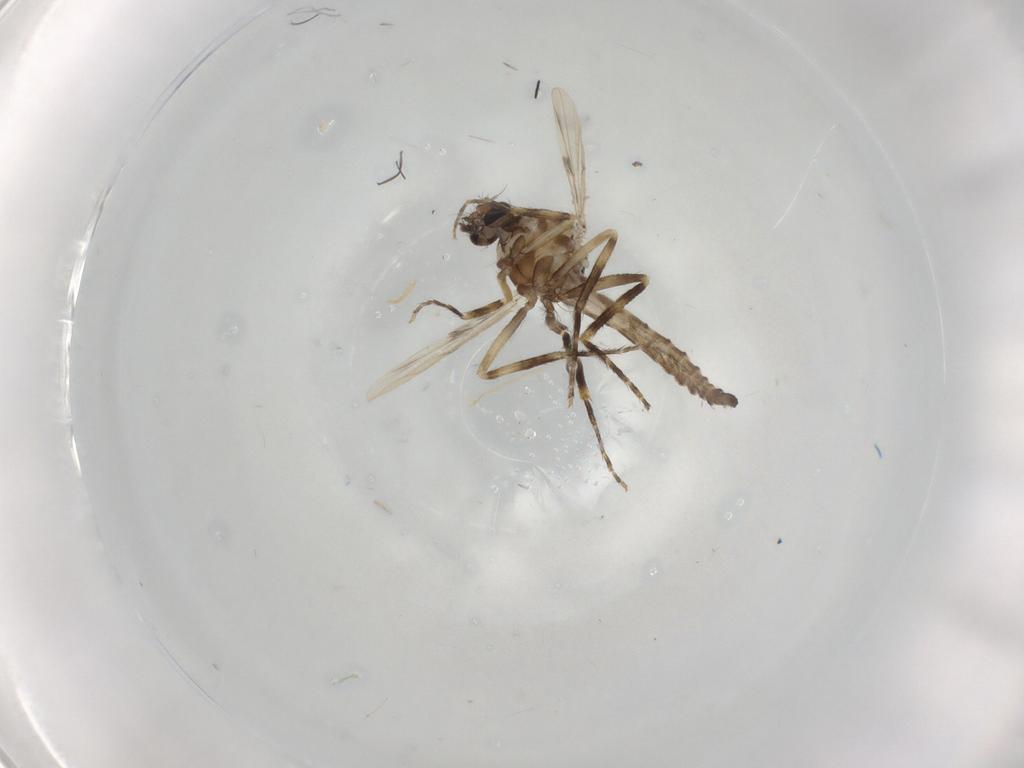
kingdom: Animalia
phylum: Arthropoda
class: Insecta
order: Diptera
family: Ceratopogonidae
